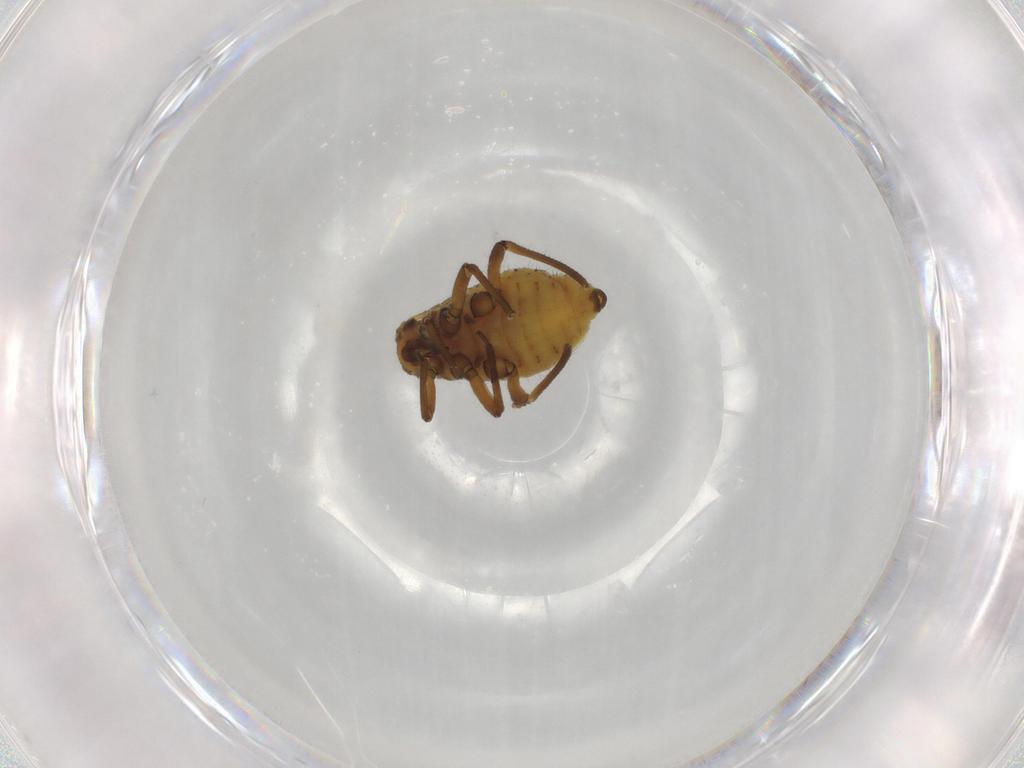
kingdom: Animalia
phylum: Arthropoda
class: Insecta
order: Hemiptera
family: Aphididae
